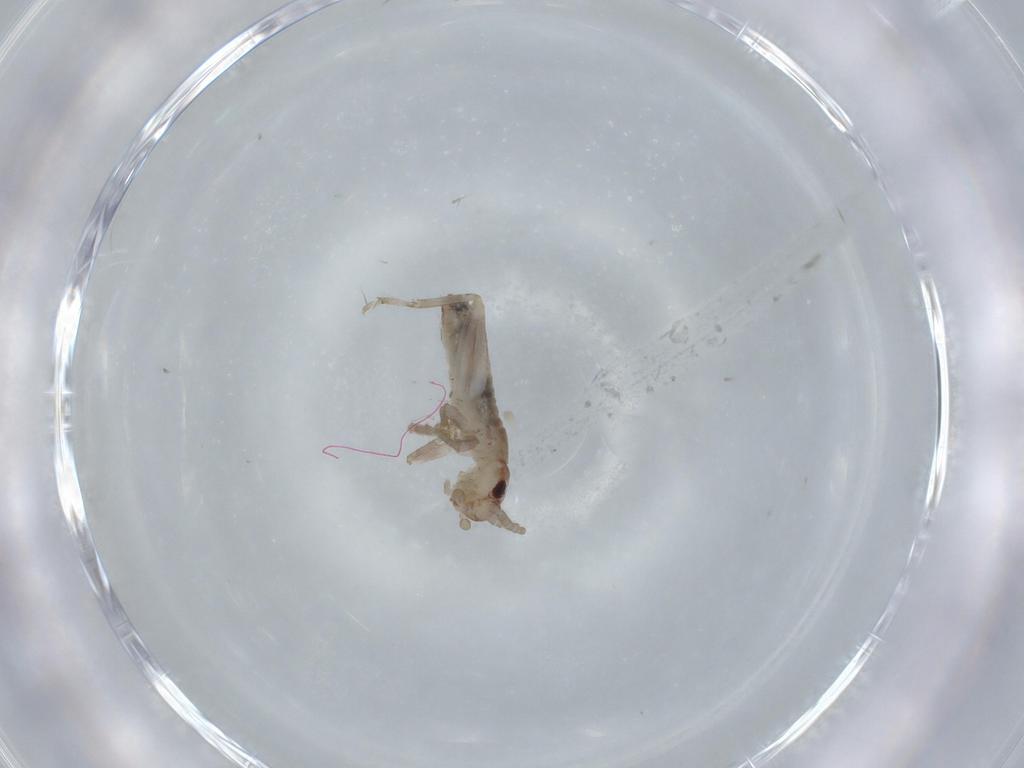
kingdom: Animalia
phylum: Arthropoda
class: Insecta
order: Orthoptera
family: Mogoplistidae
